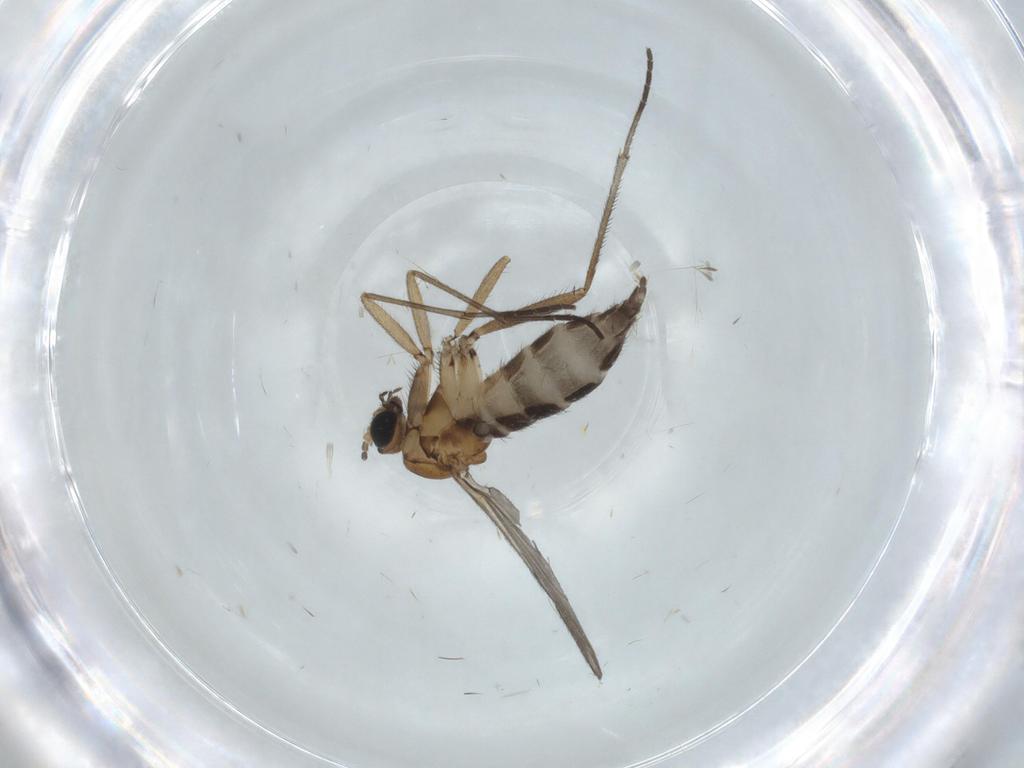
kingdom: Animalia
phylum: Arthropoda
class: Insecta
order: Diptera
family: Sciaridae
